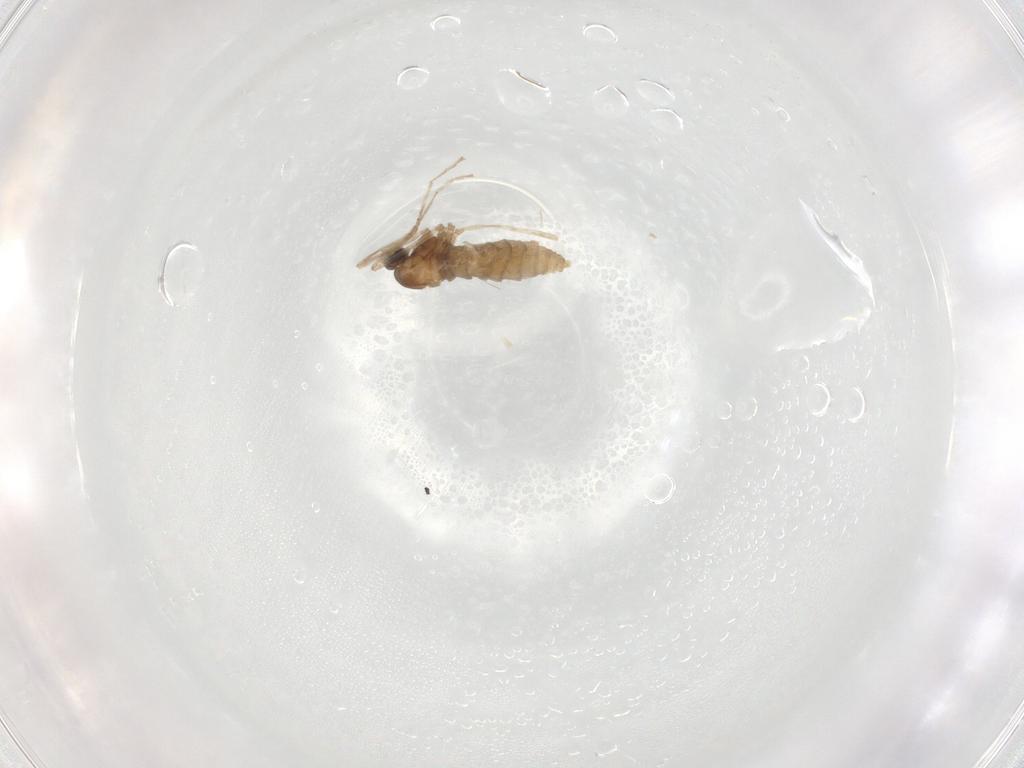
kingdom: Animalia
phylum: Arthropoda
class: Insecta
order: Diptera
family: Cecidomyiidae
